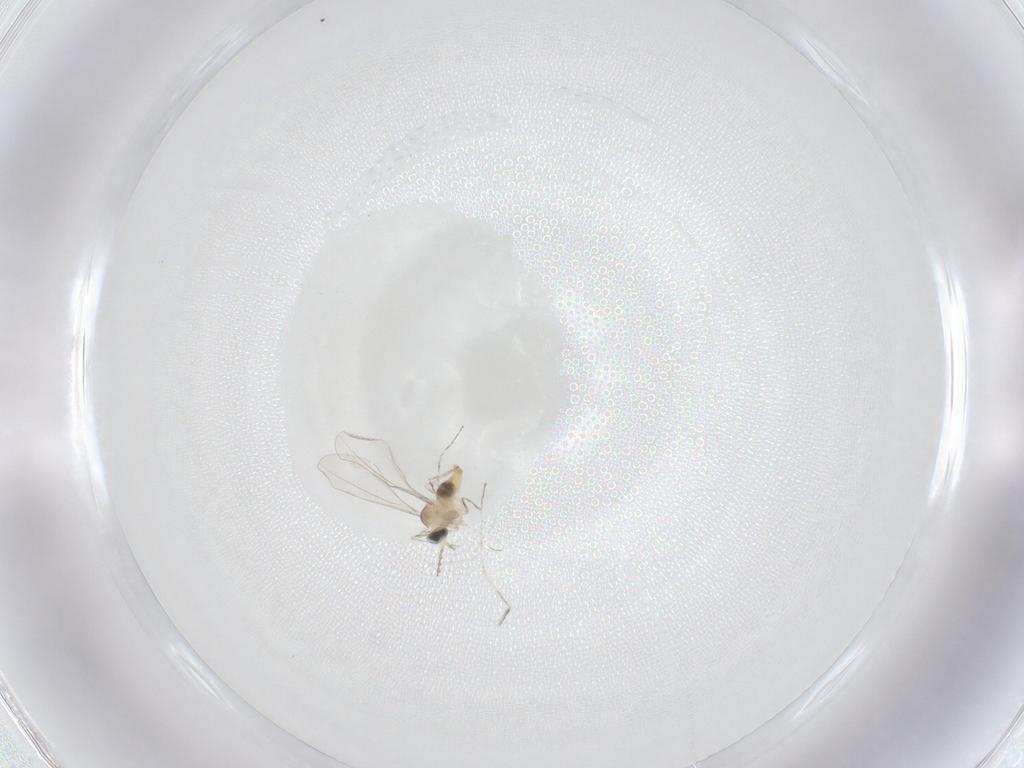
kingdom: Animalia
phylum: Arthropoda
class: Insecta
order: Diptera
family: Cecidomyiidae
